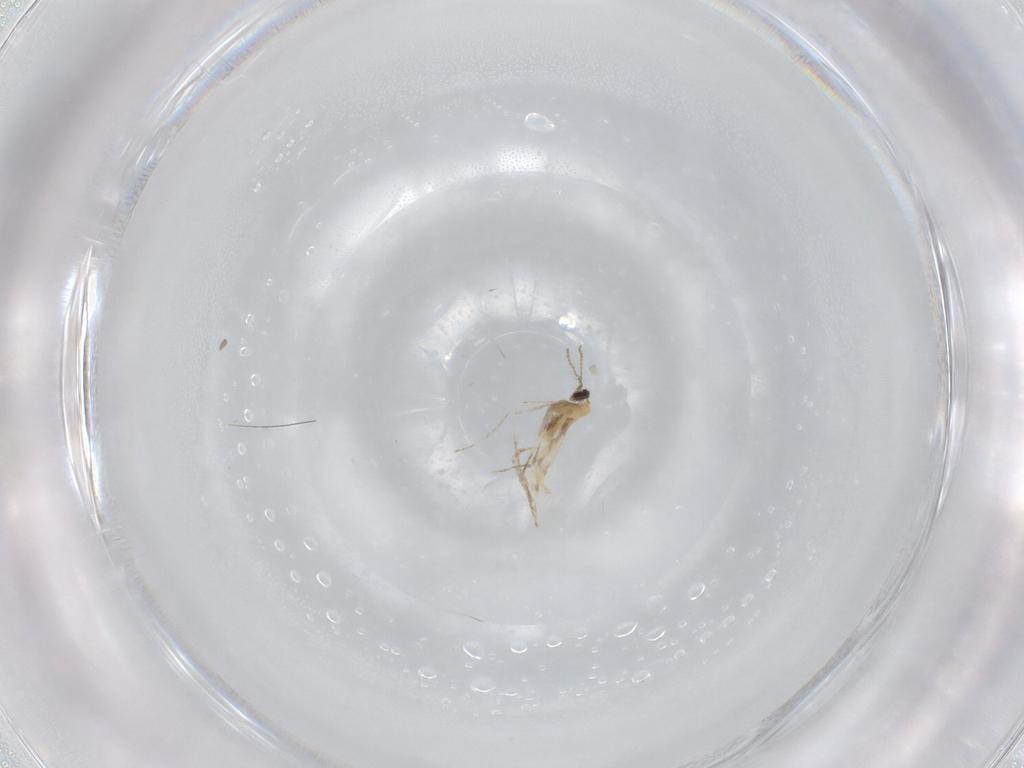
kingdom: Animalia
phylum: Arthropoda
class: Insecta
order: Diptera
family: Cecidomyiidae
